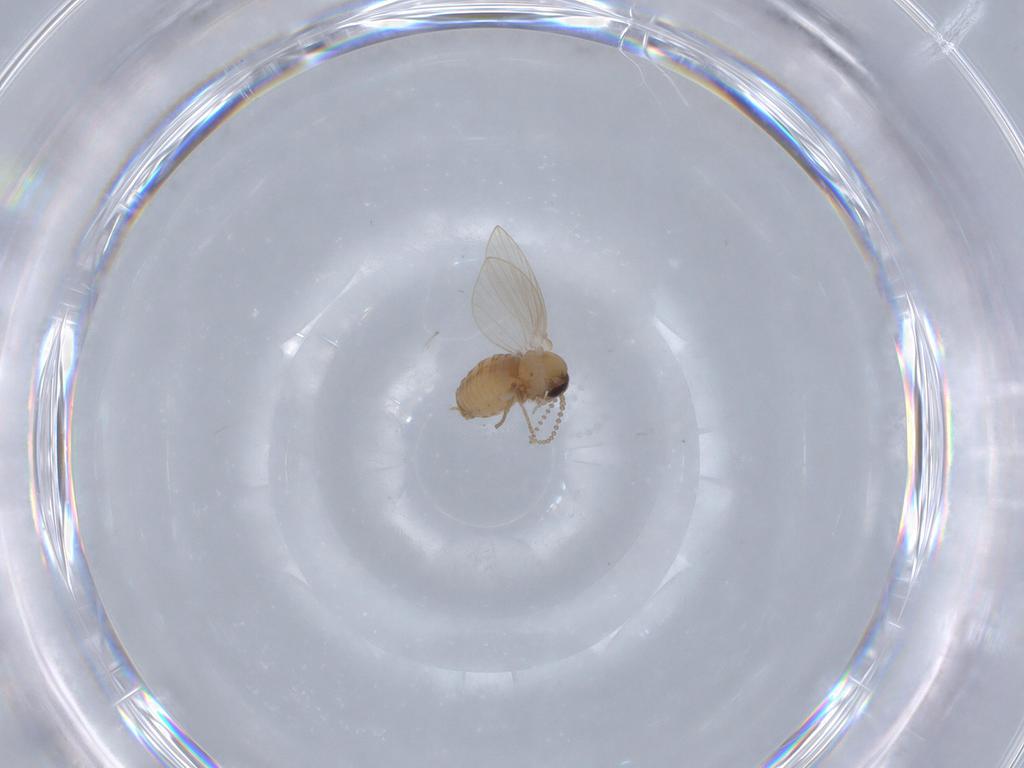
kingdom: Animalia
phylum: Arthropoda
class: Insecta
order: Diptera
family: Psychodidae
